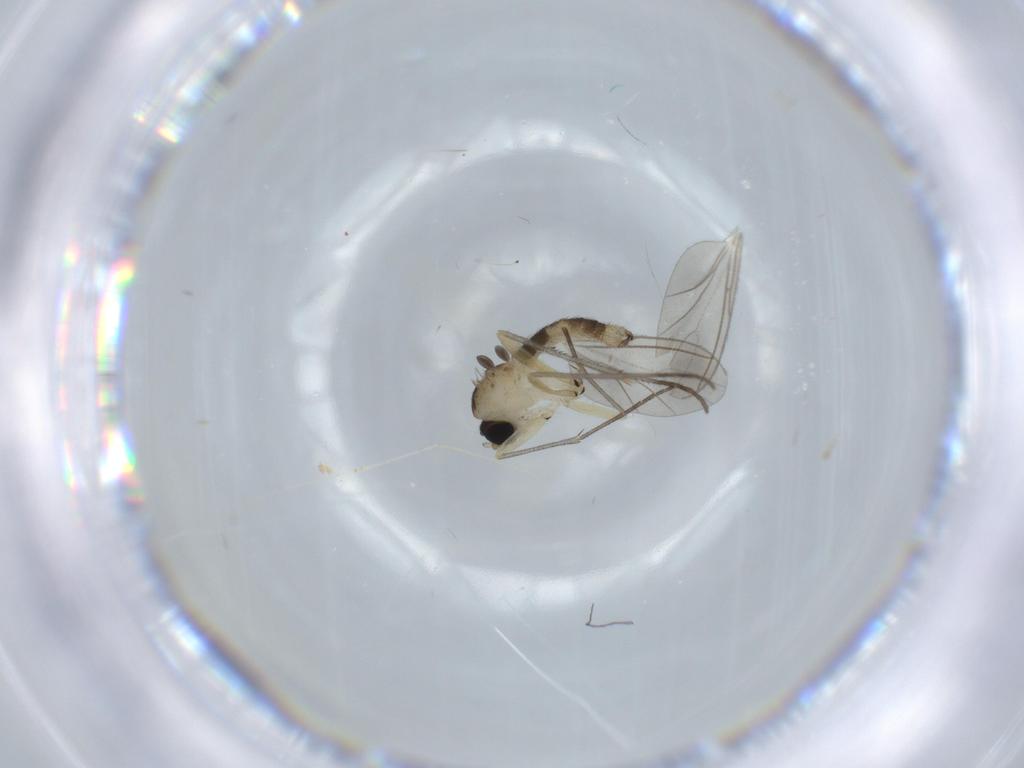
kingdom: Animalia
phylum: Arthropoda
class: Insecta
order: Diptera
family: Sciaridae
